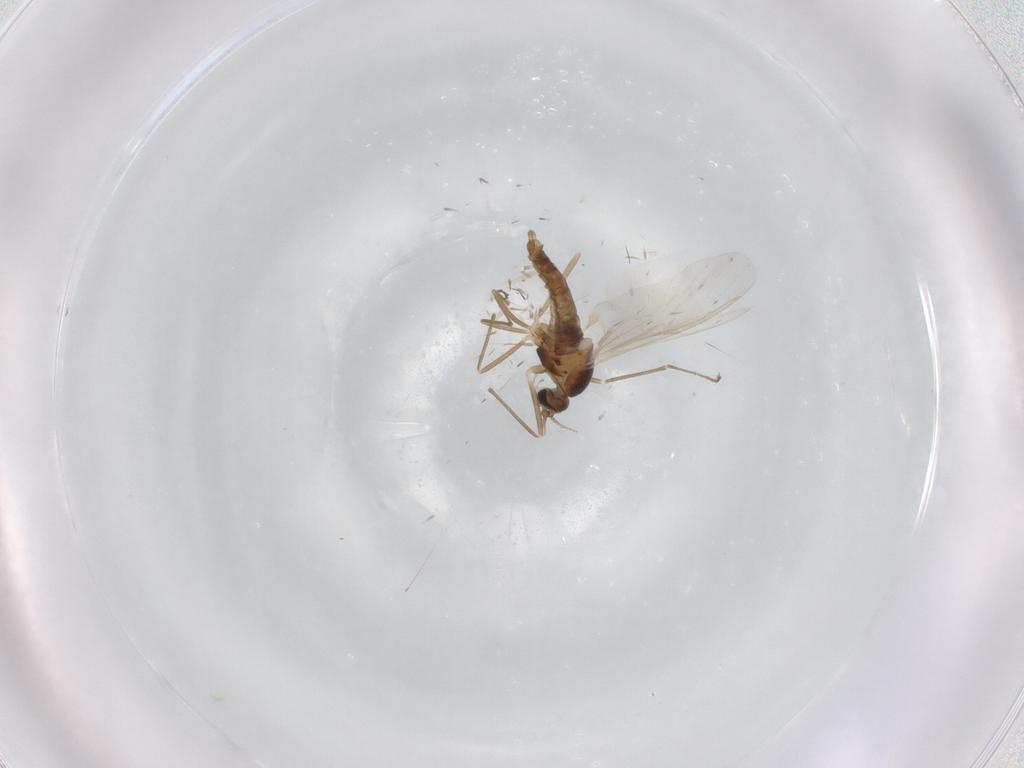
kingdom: Animalia
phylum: Arthropoda
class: Insecta
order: Diptera
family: Cecidomyiidae
